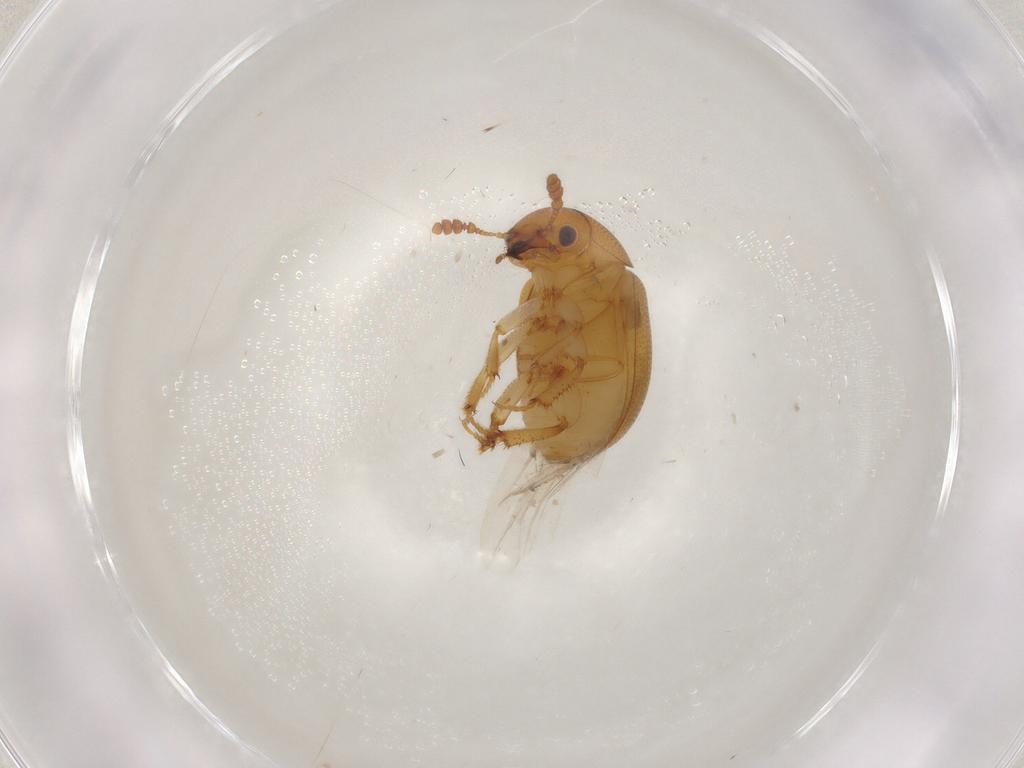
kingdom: Animalia
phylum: Arthropoda
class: Insecta
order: Coleoptera
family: Leiodidae
